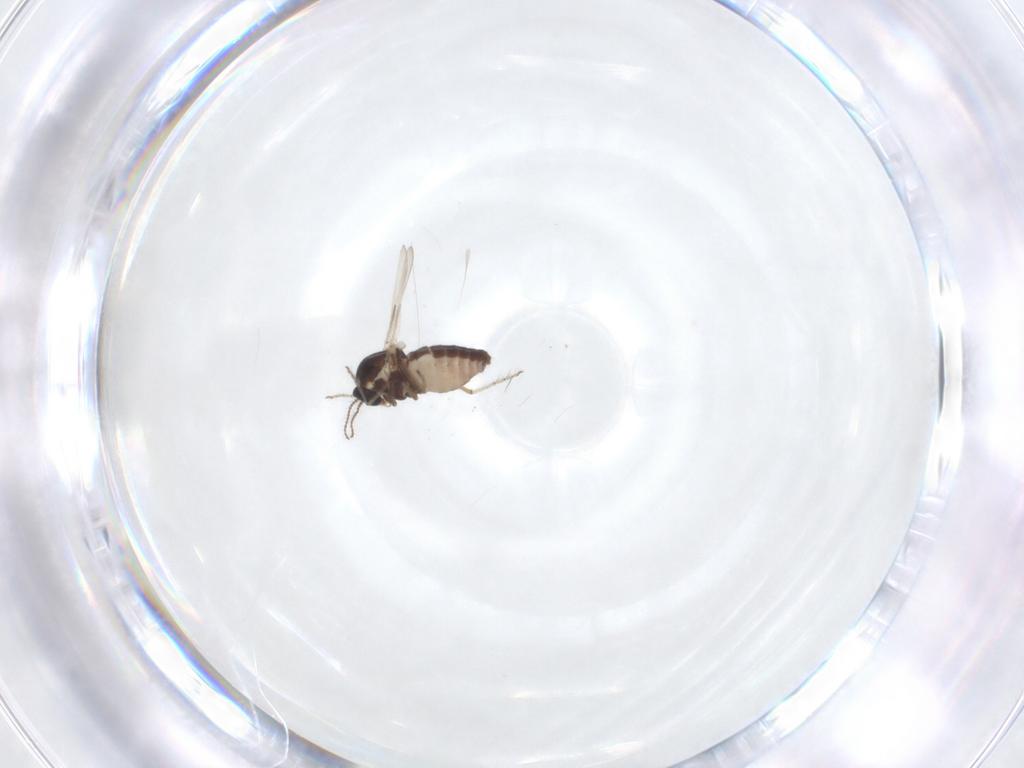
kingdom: Animalia
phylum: Arthropoda
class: Insecta
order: Diptera
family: Ceratopogonidae
